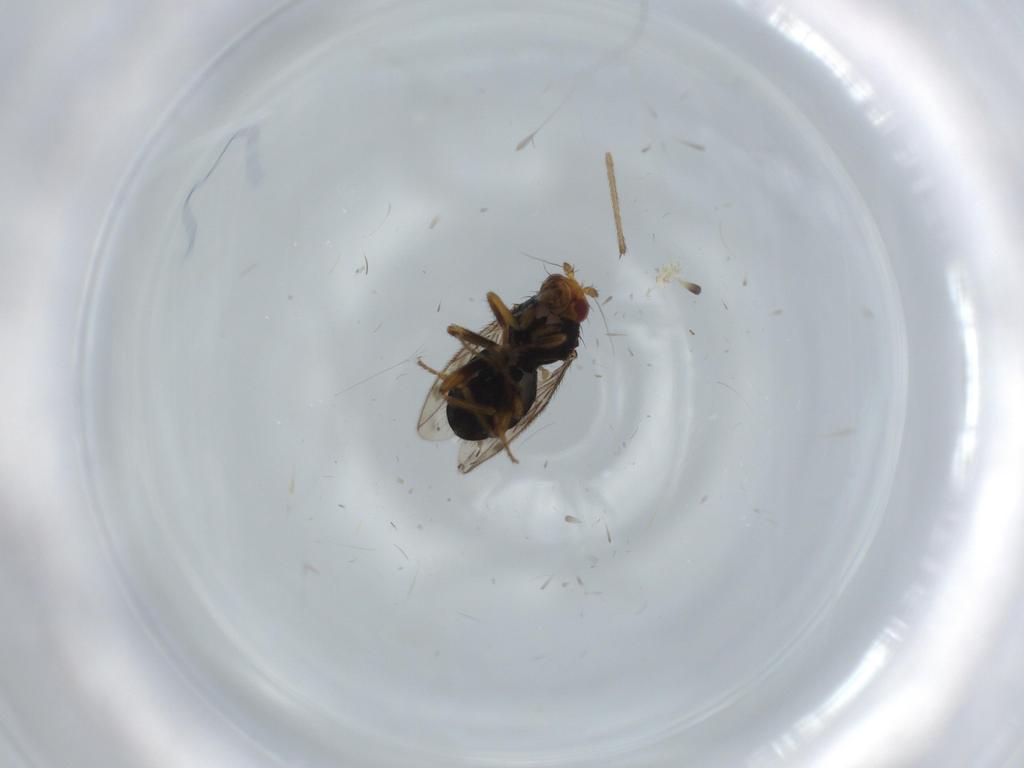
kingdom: Animalia
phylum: Arthropoda
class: Insecta
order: Diptera
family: Sphaeroceridae
